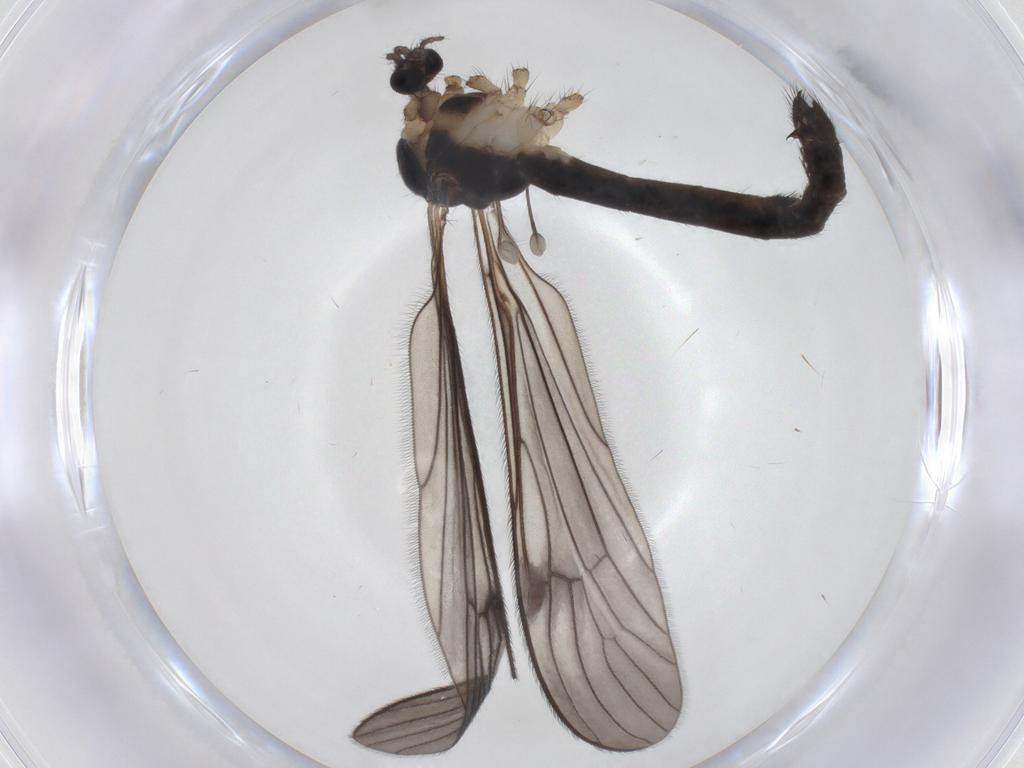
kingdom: Animalia
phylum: Arthropoda
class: Insecta
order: Diptera
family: Limoniidae
